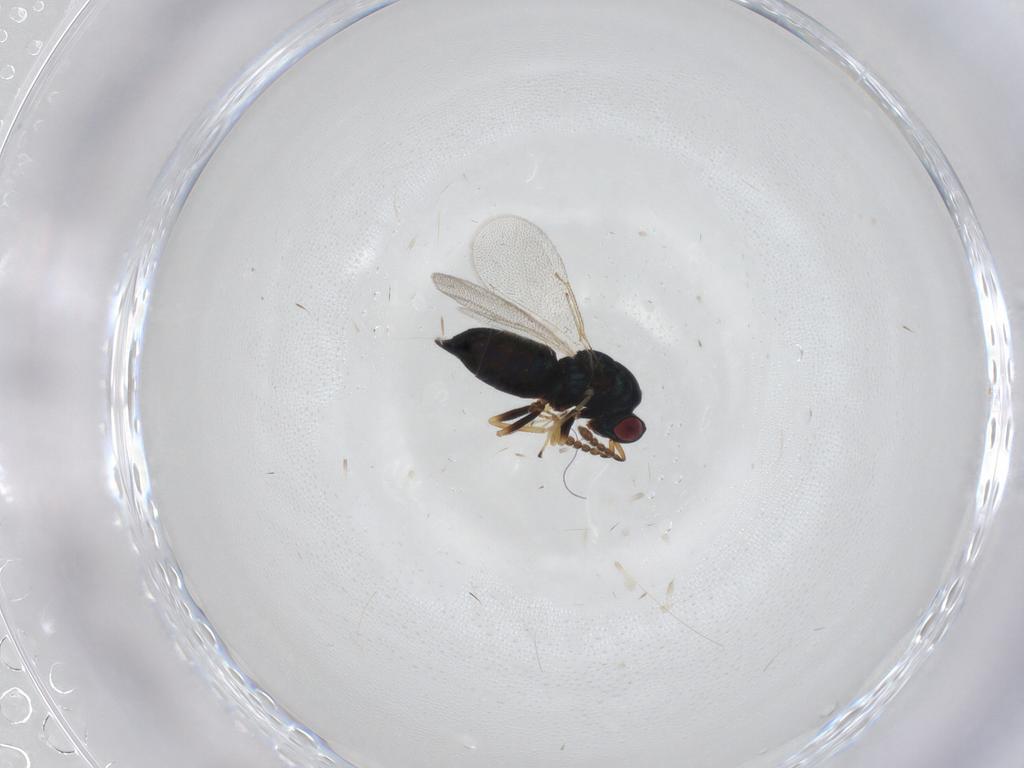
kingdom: Animalia
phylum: Arthropoda
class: Insecta
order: Hymenoptera
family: Eulophidae
